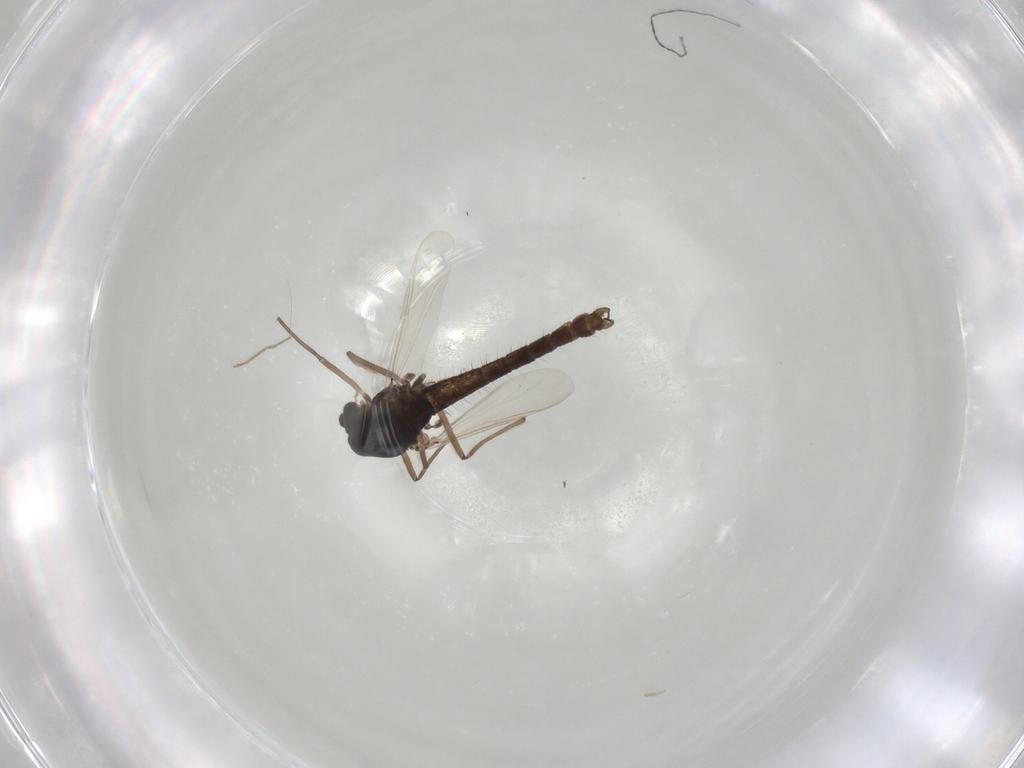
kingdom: Animalia
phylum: Arthropoda
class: Insecta
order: Diptera
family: Chironomidae
